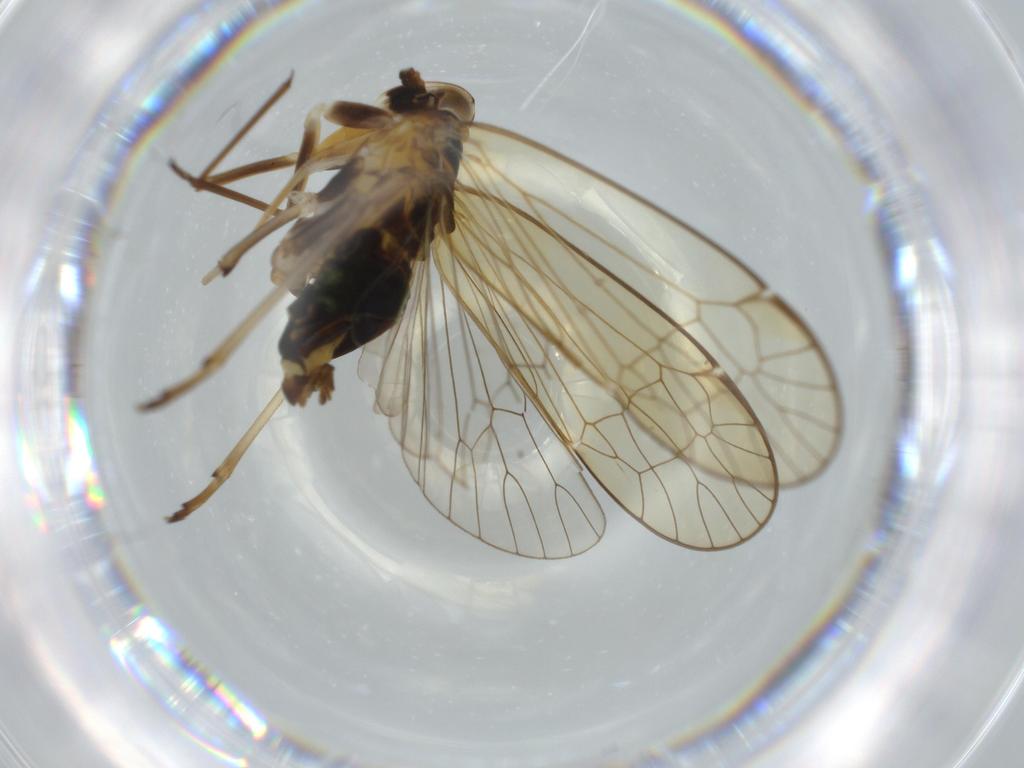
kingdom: Animalia
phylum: Arthropoda
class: Insecta
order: Hemiptera
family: Kinnaridae
